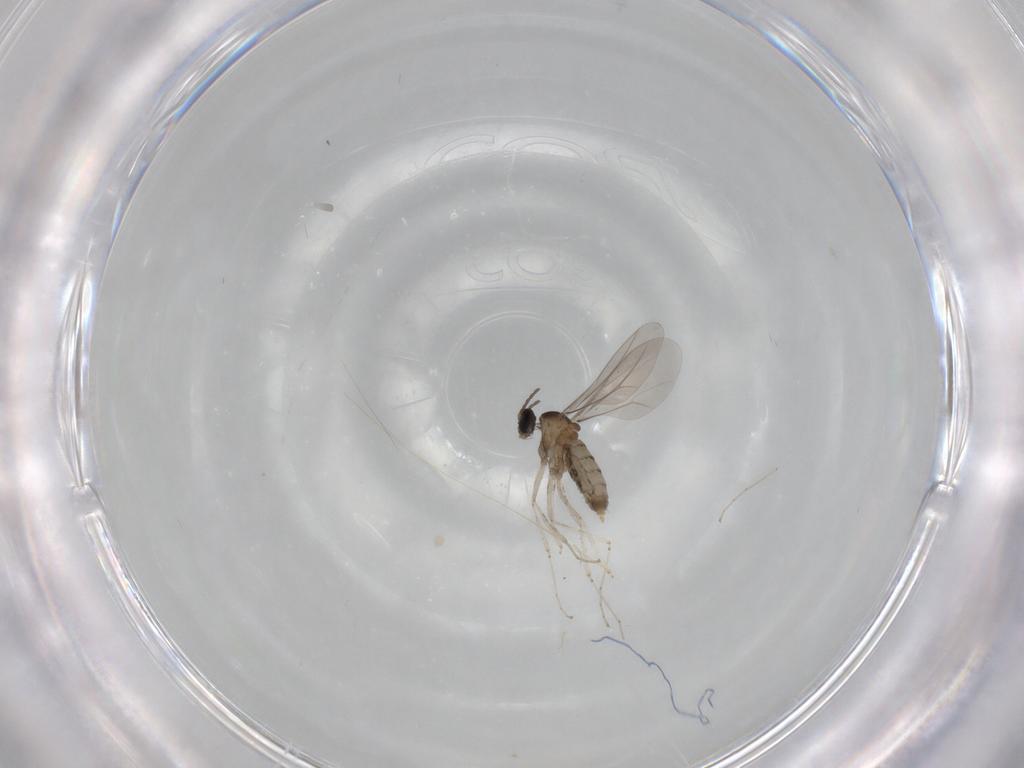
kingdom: Animalia
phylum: Arthropoda
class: Insecta
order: Diptera
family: Cecidomyiidae
